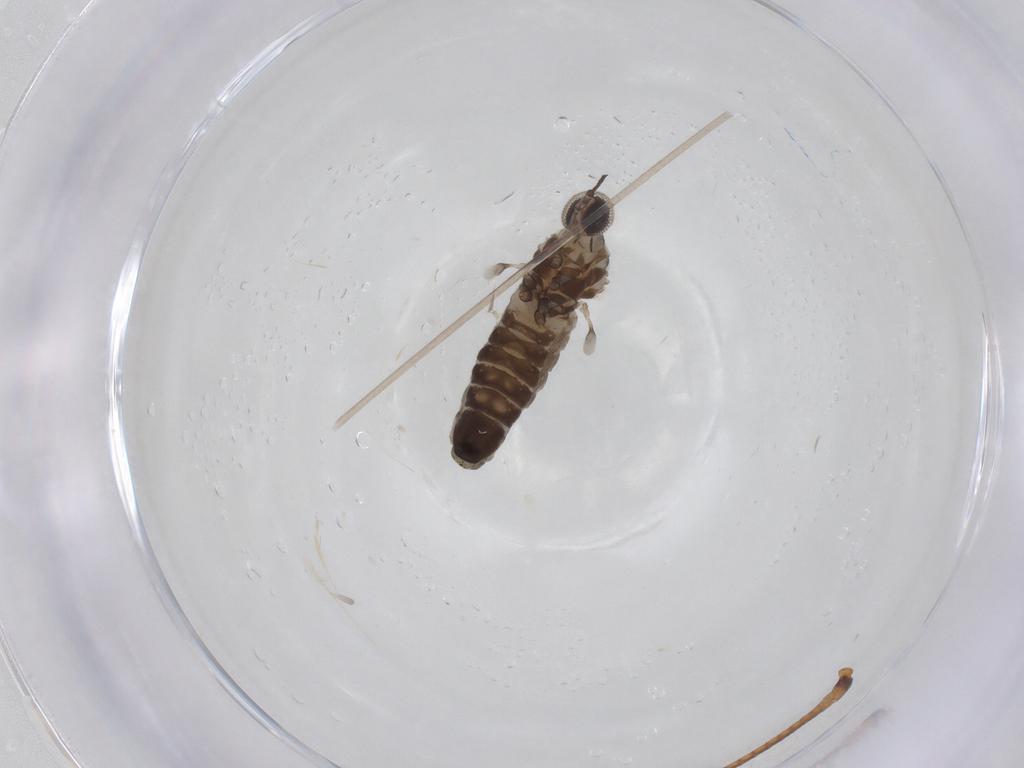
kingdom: Animalia
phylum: Arthropoda
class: Insecta
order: Diptera
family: Cecidomyiidae
